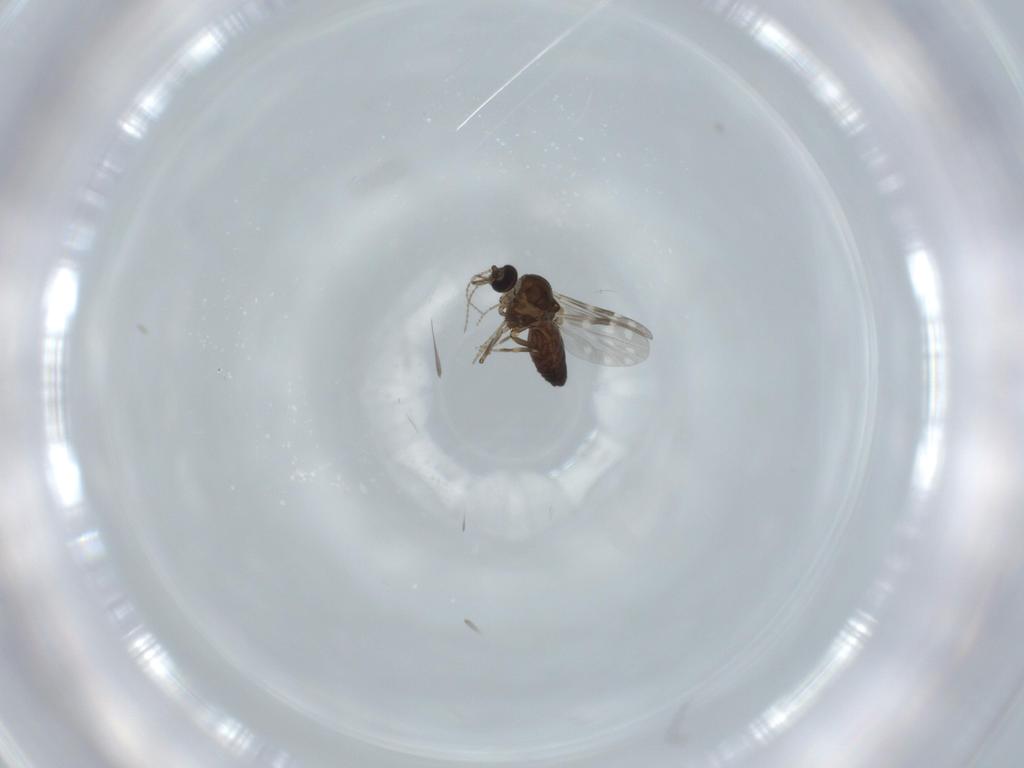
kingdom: Animalia
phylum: Arthropoda
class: Insecta
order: Diptera
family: Ceratopogonidae
